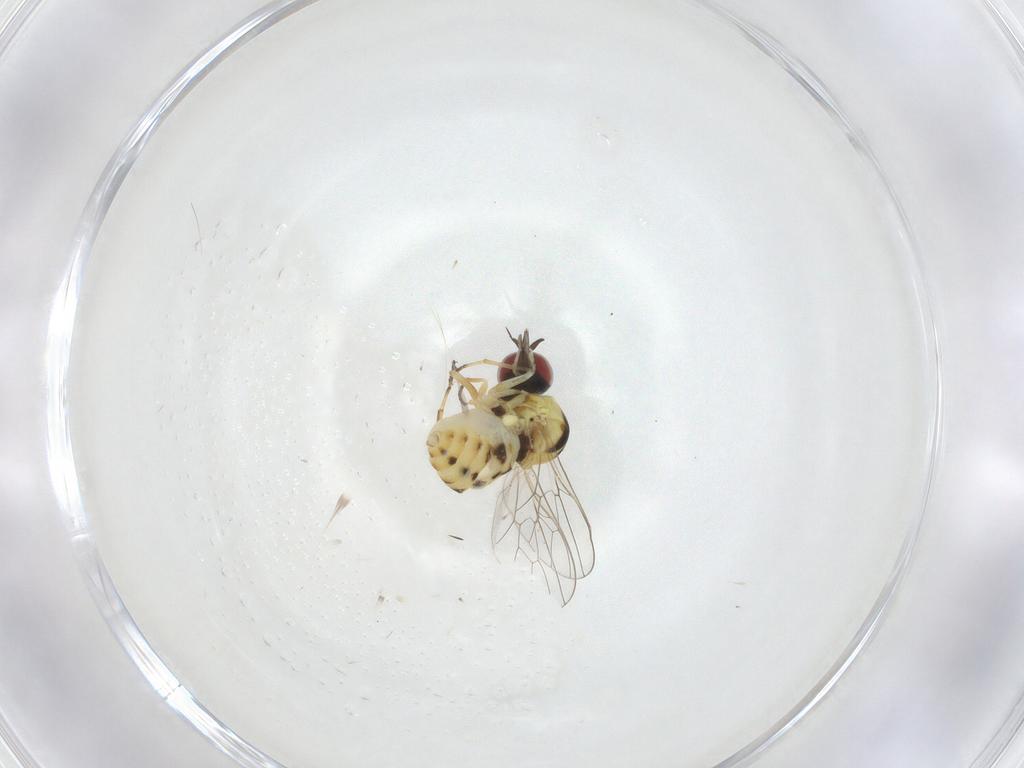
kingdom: Animalia
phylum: Arthropoda
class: Insecta
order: Diptera
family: Bombyliidae
